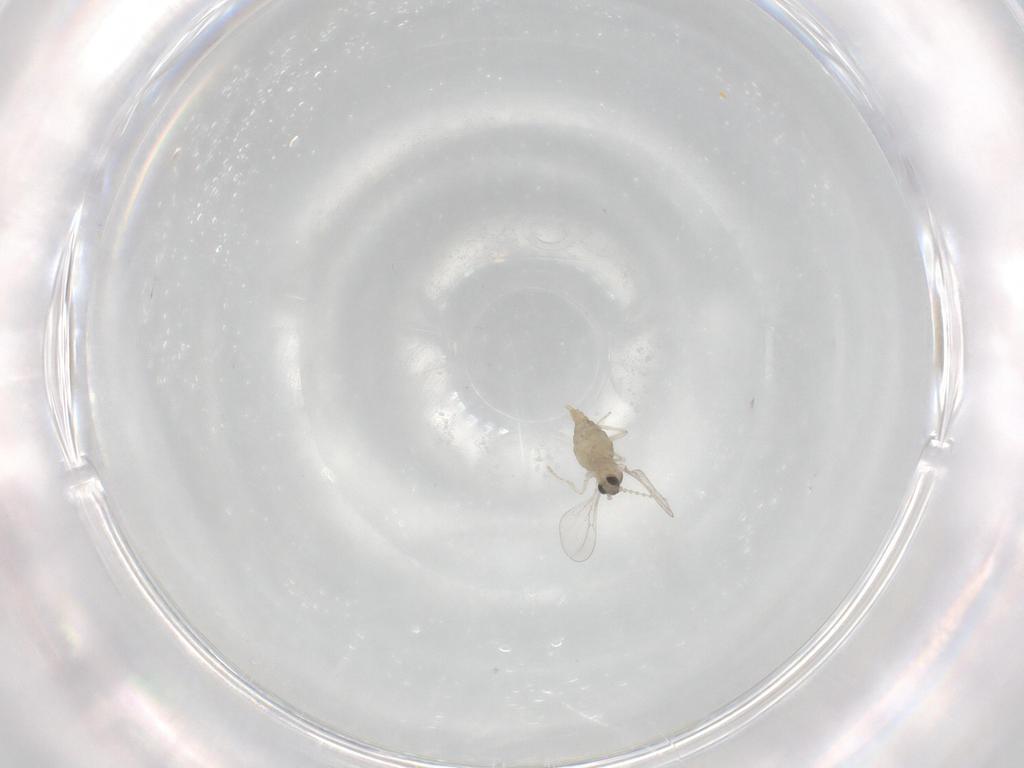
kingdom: Animalia
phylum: Arthropoda
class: Insecta
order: Diptera
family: Cecidomyiidae
